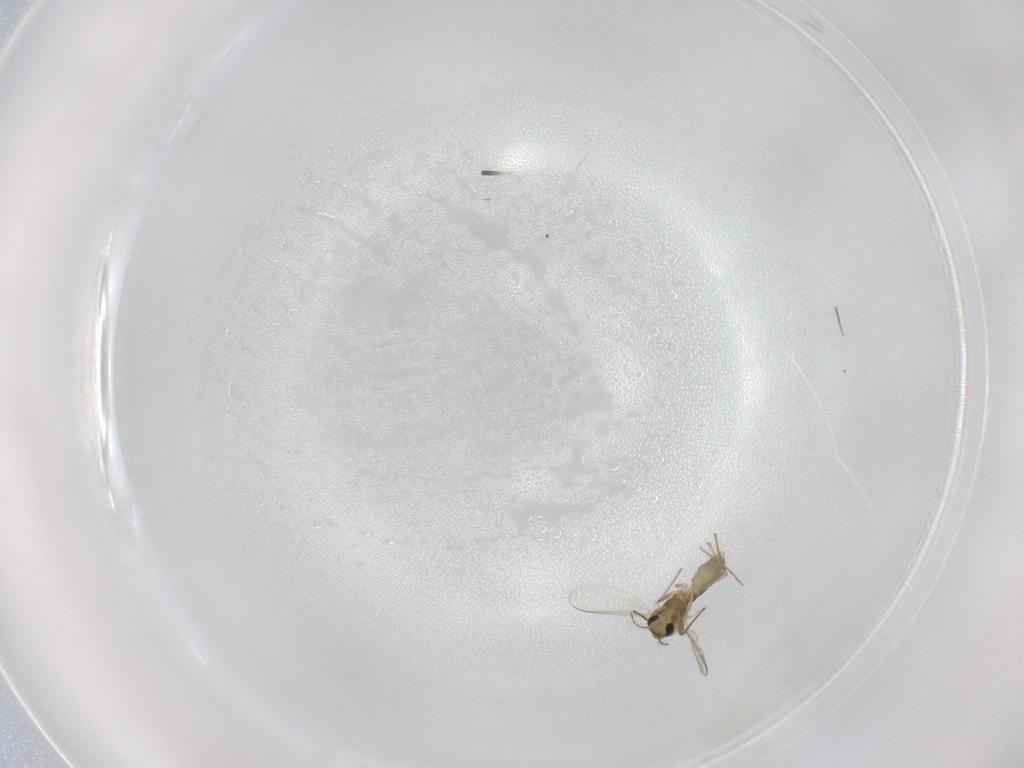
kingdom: Animalia
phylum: Arthropoda
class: Insecta
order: Diptera
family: Chironomidae
